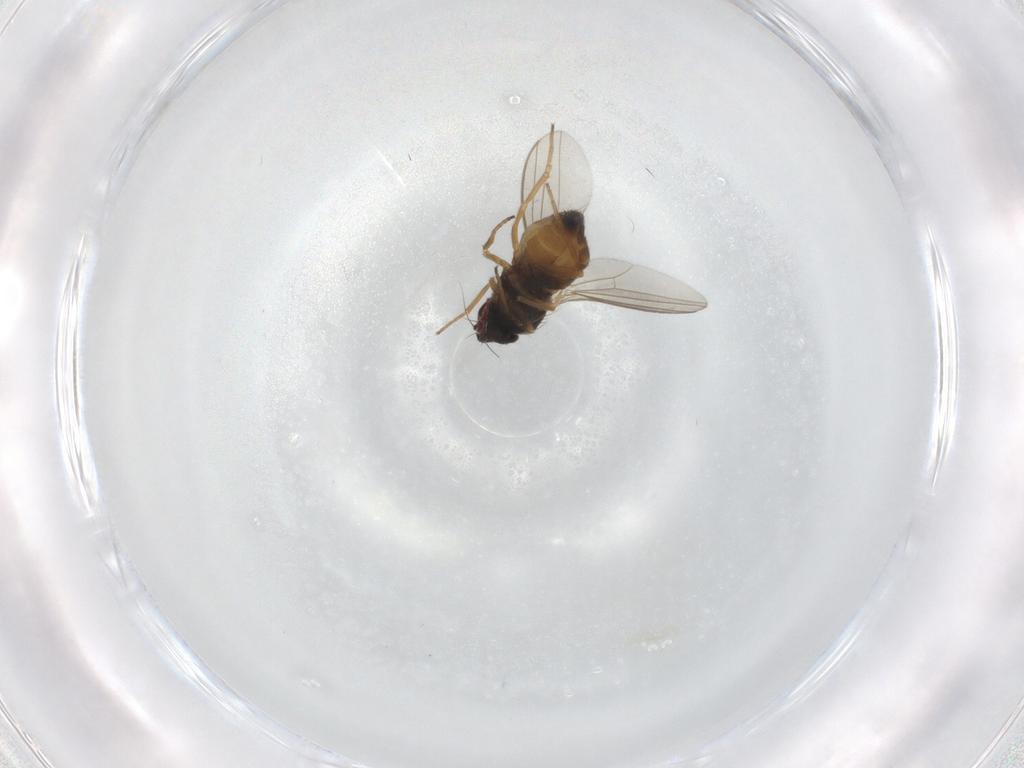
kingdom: Animalia
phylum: Arthropoda
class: Insecta
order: Diptera
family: Dolichopodidae
